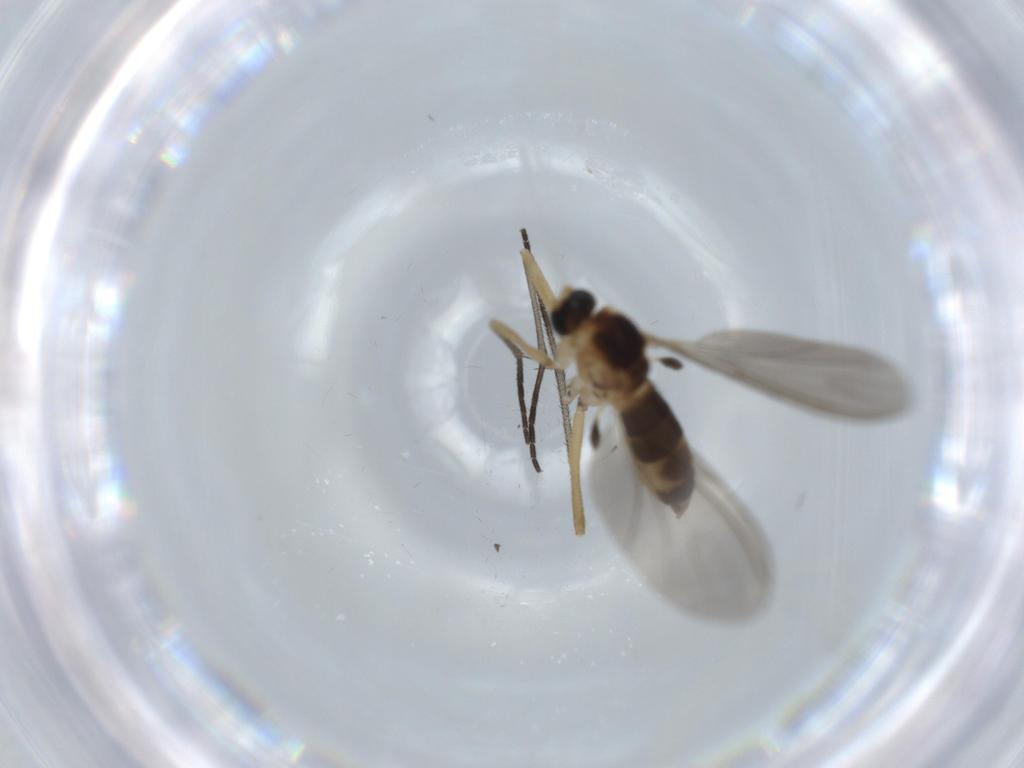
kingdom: Animalia
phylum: Arthropoda
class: Insecta
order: Diptera
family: Sciaridae
